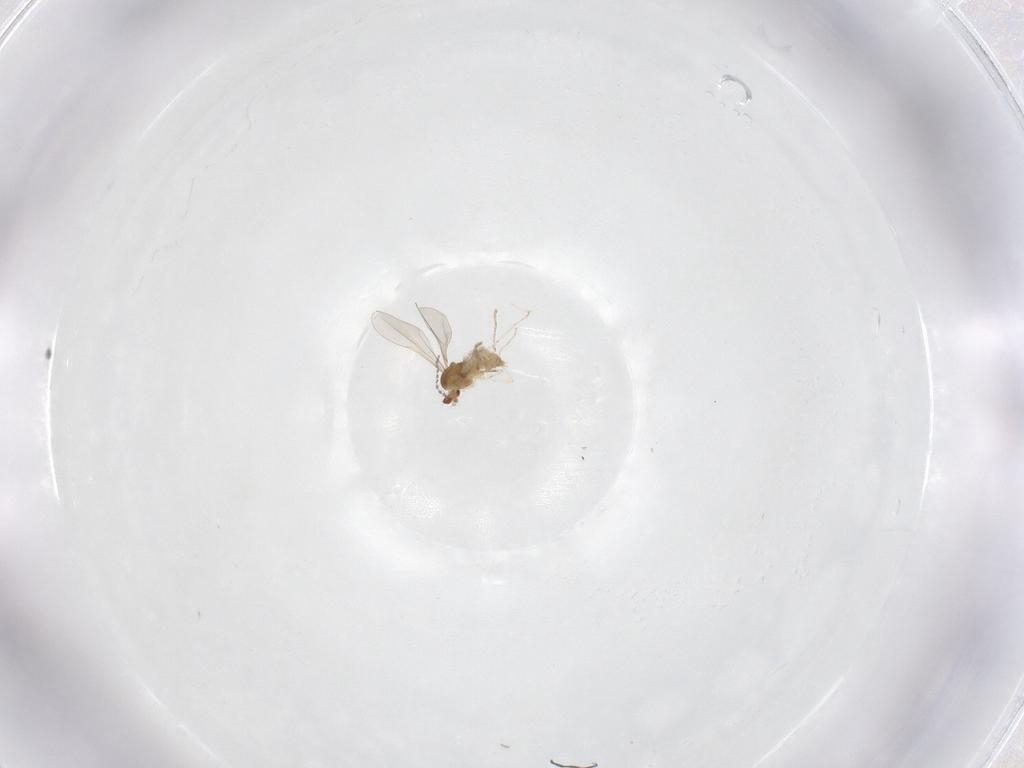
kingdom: Animalia
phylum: Arthropoda
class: Insecta
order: Diptera
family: Cecidomyiidae
